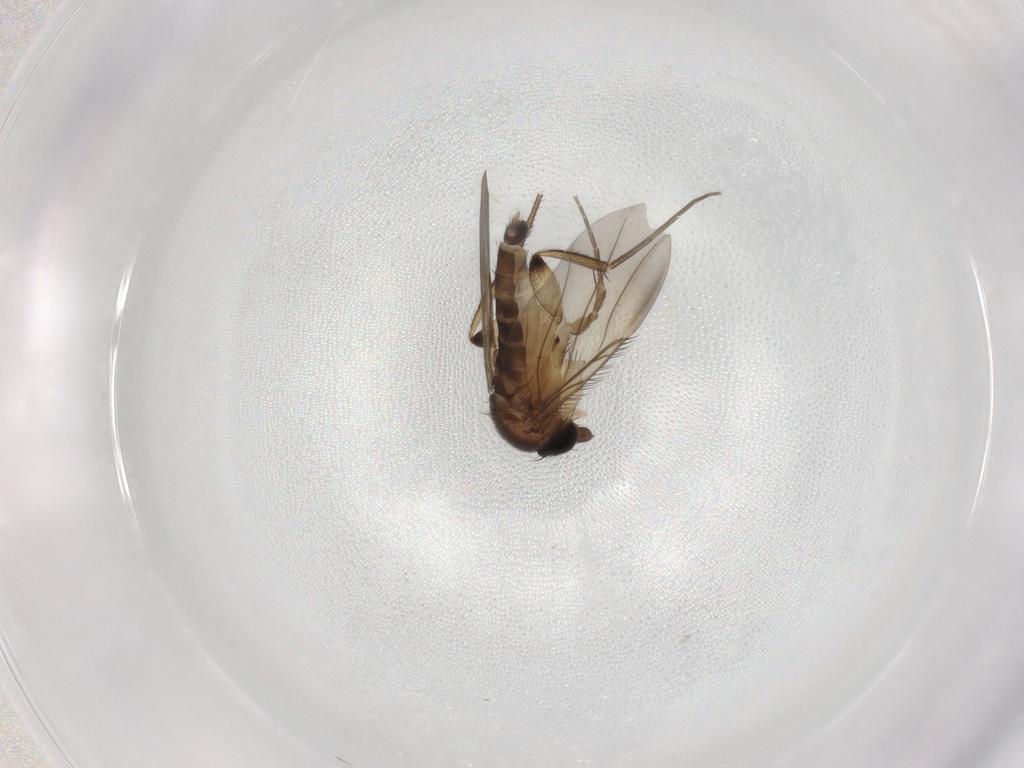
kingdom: Animalia
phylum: Arthropoda
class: Insecta
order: Diptera
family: Phoridae
